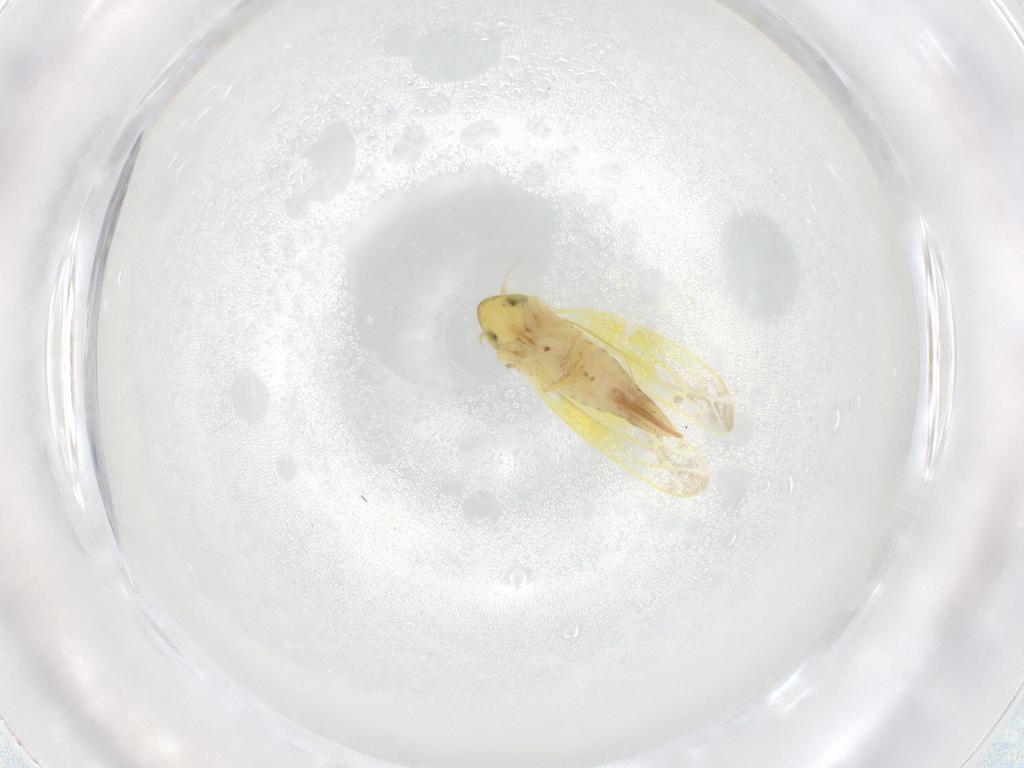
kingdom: Animalia
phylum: Arthropoda
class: Insecta
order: Hemiptera
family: Cicadellidae
